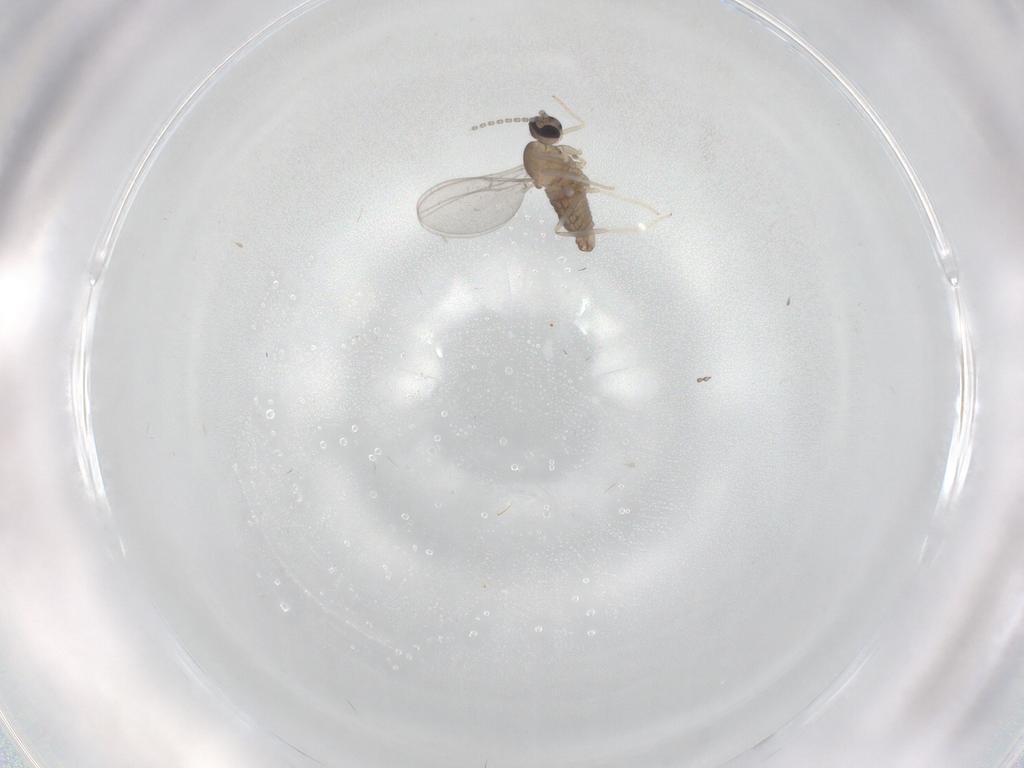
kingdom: Animalia
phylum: Arthropoda
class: Insecta
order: Diptera
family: Cecidomyiidae
